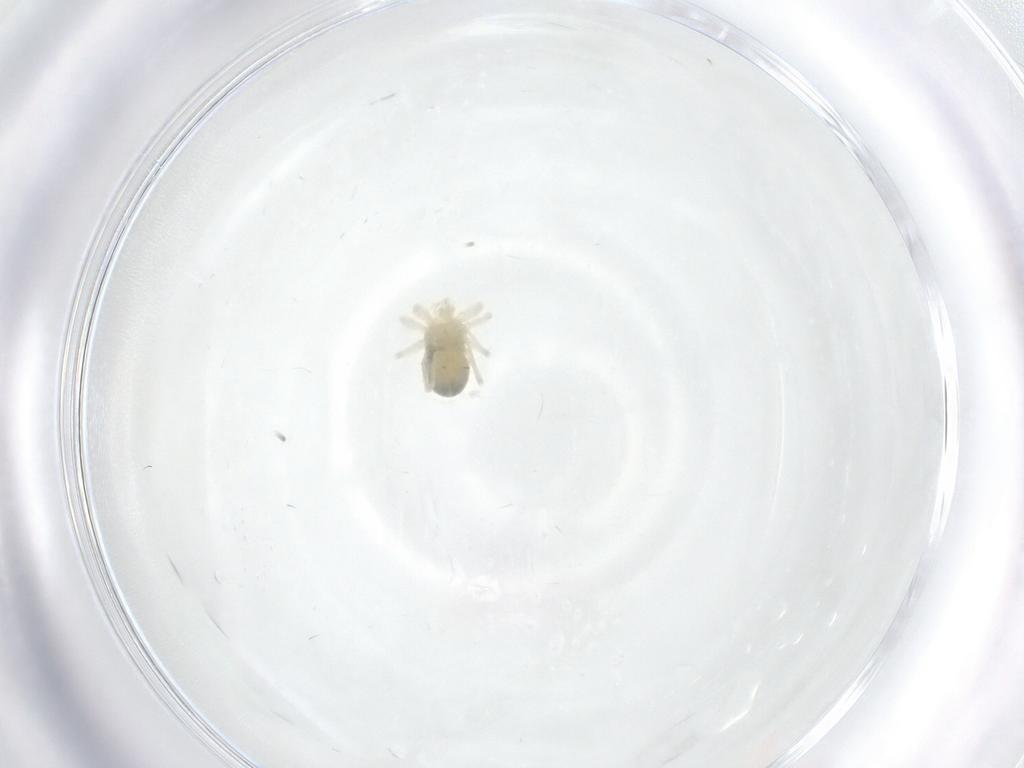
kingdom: Animalia
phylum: Arthropoda
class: Arachnida
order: Trombidiformes
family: Anystidae
